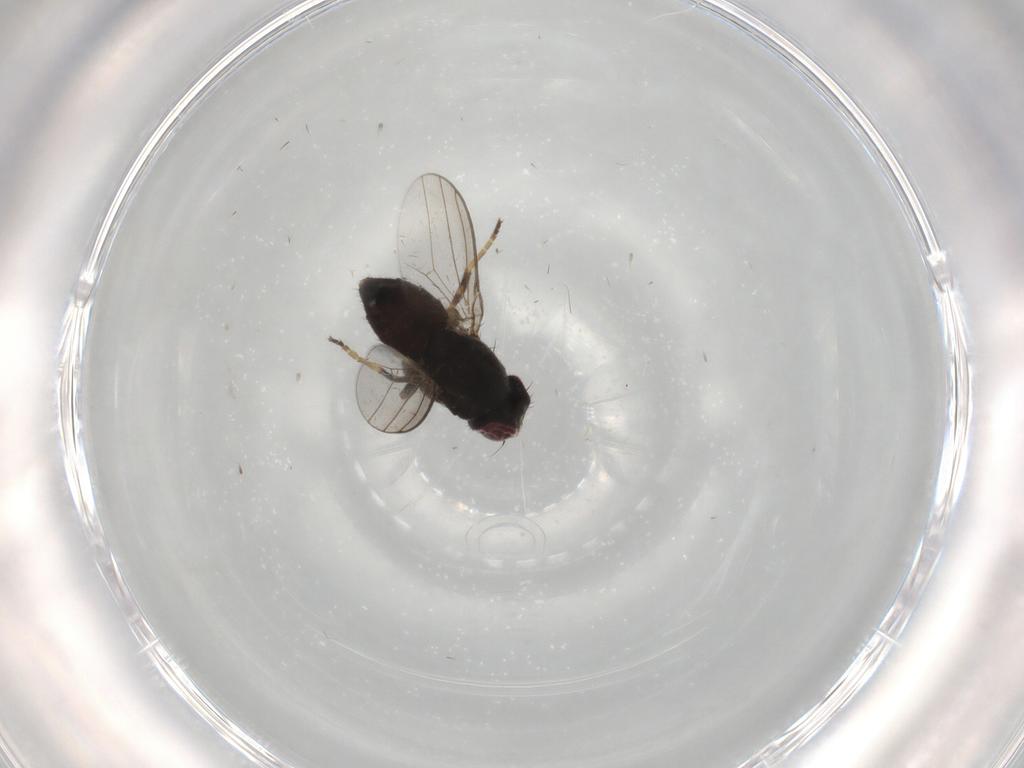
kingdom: Animalia
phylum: Arthropoda
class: Insecta
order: Diptera
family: Chloropidae
